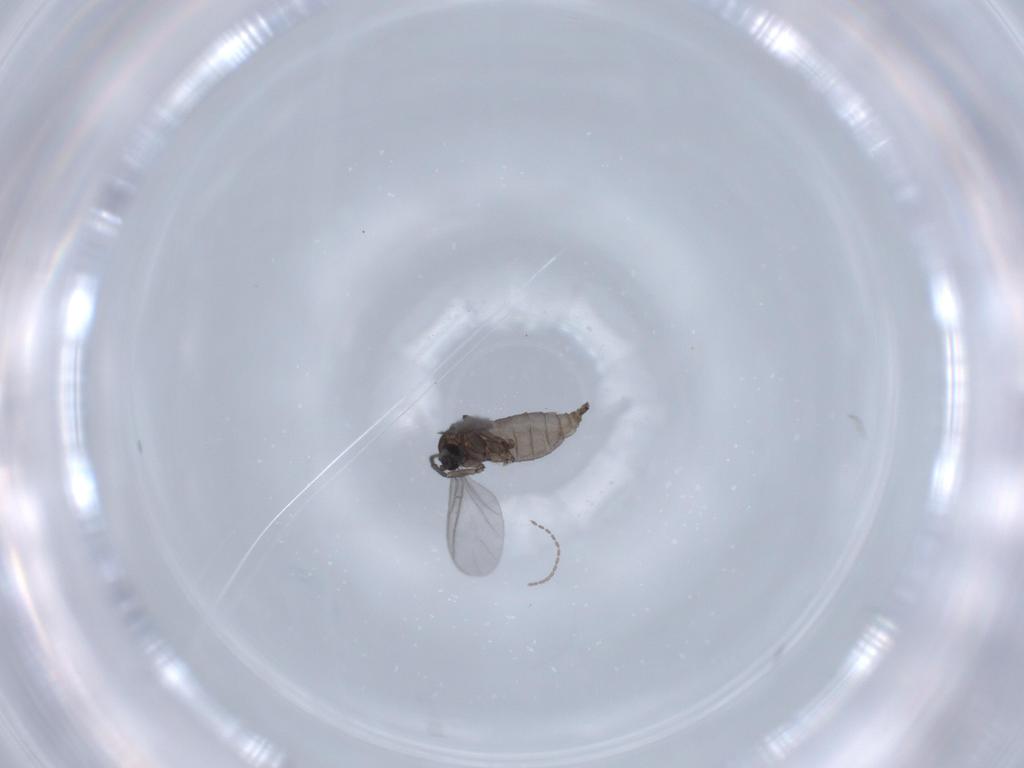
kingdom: Animalia
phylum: Arthropoda
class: Insecta
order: Diptera
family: Sciaridae
